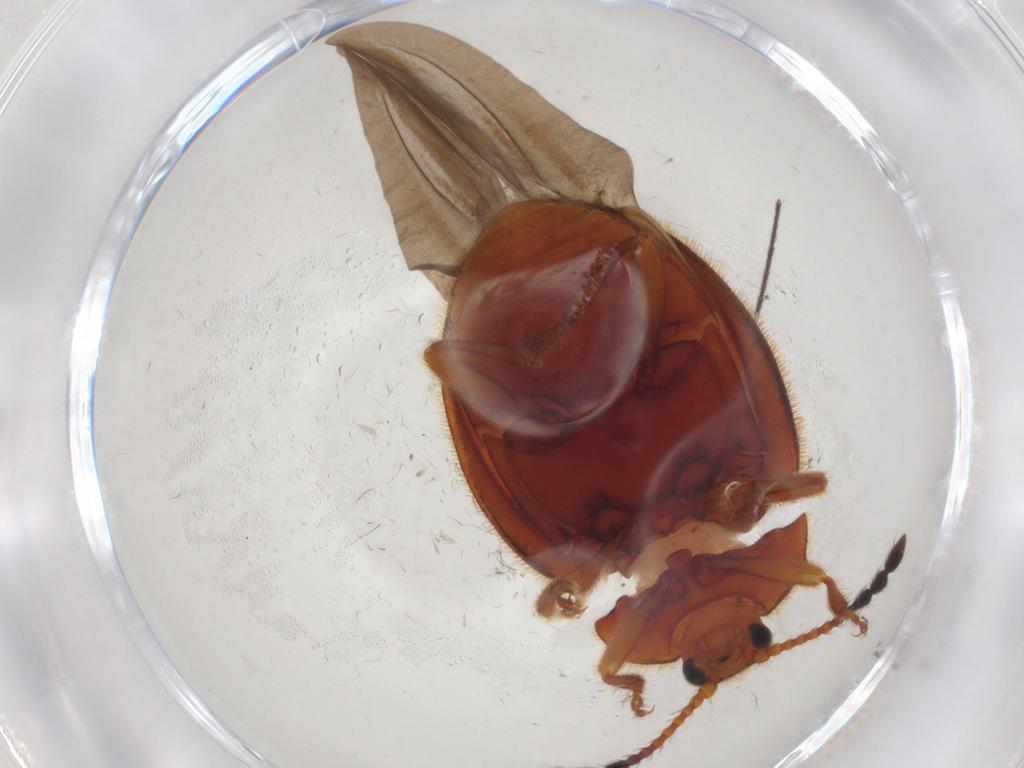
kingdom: Animalia
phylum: Arthropoda
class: Insecta
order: Coleoptera
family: Endomychidae
